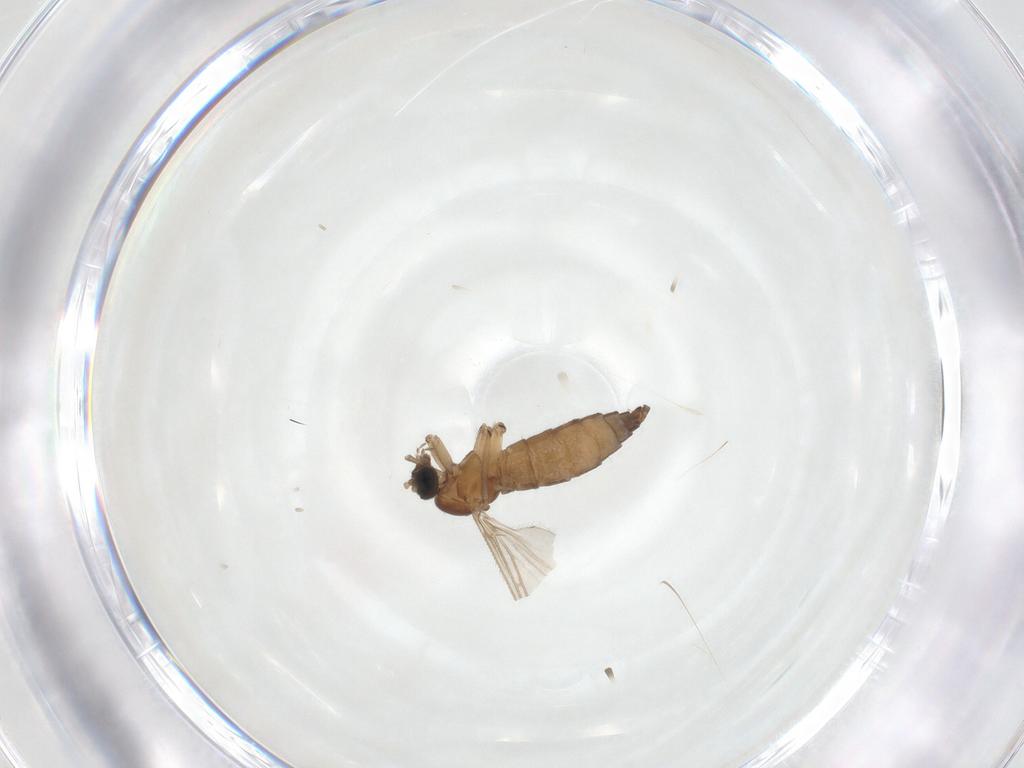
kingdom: Animalia
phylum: Arthropoda
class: Insecta
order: Diptera
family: Sciaridae
